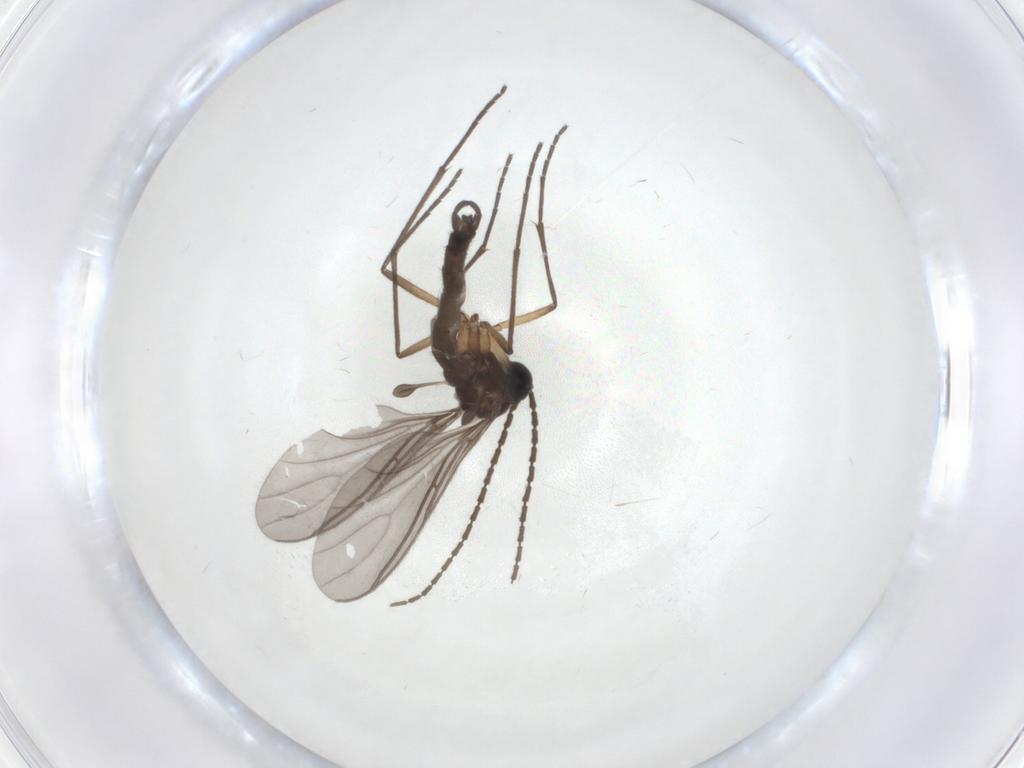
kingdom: Animalia
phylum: Arthropoda
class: Insecta
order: Diptera
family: Sciaridae
